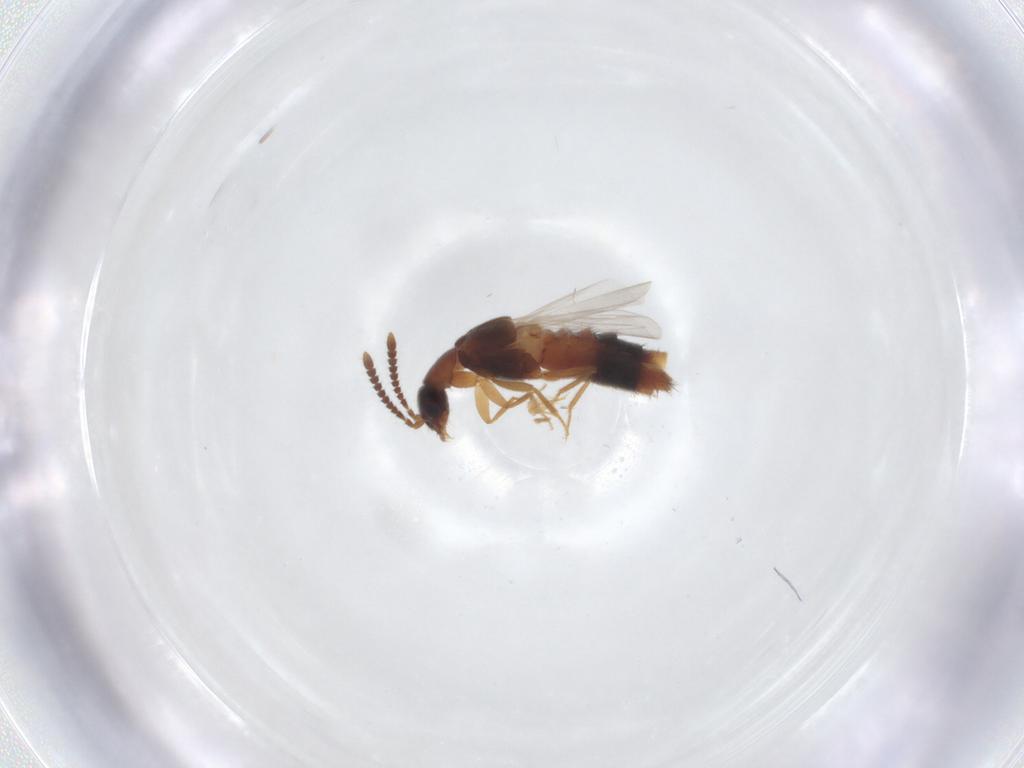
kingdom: Animalia
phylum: Arthropoda
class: Insecta
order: Coleoptera
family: Staphylinidae
